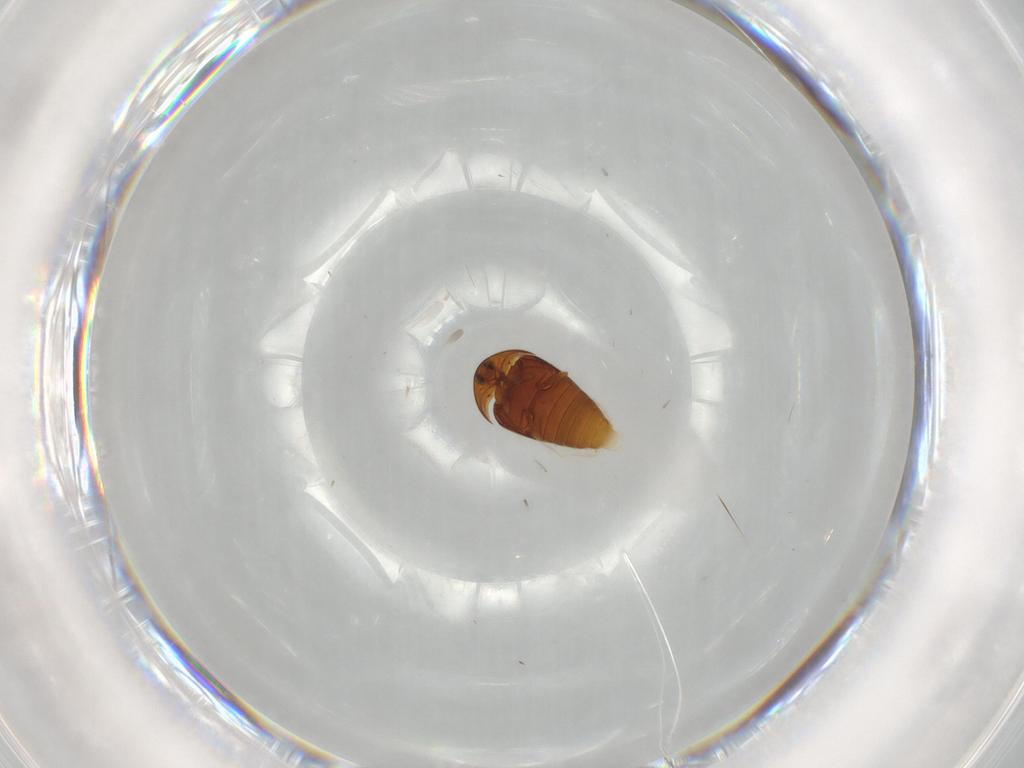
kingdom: Animalia
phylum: Arthropoda
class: Insecta
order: Coleoptera
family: Corylophidae
